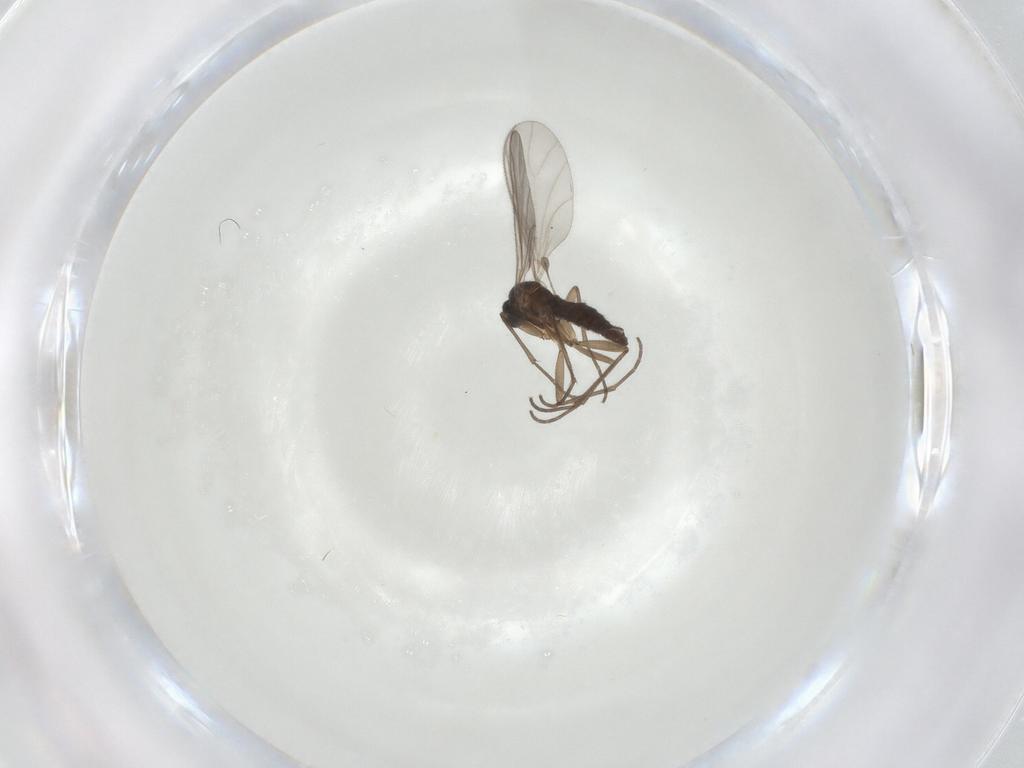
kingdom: Animalia
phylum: Arthropoda
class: Insecta
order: Diptera
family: Sciaridae
